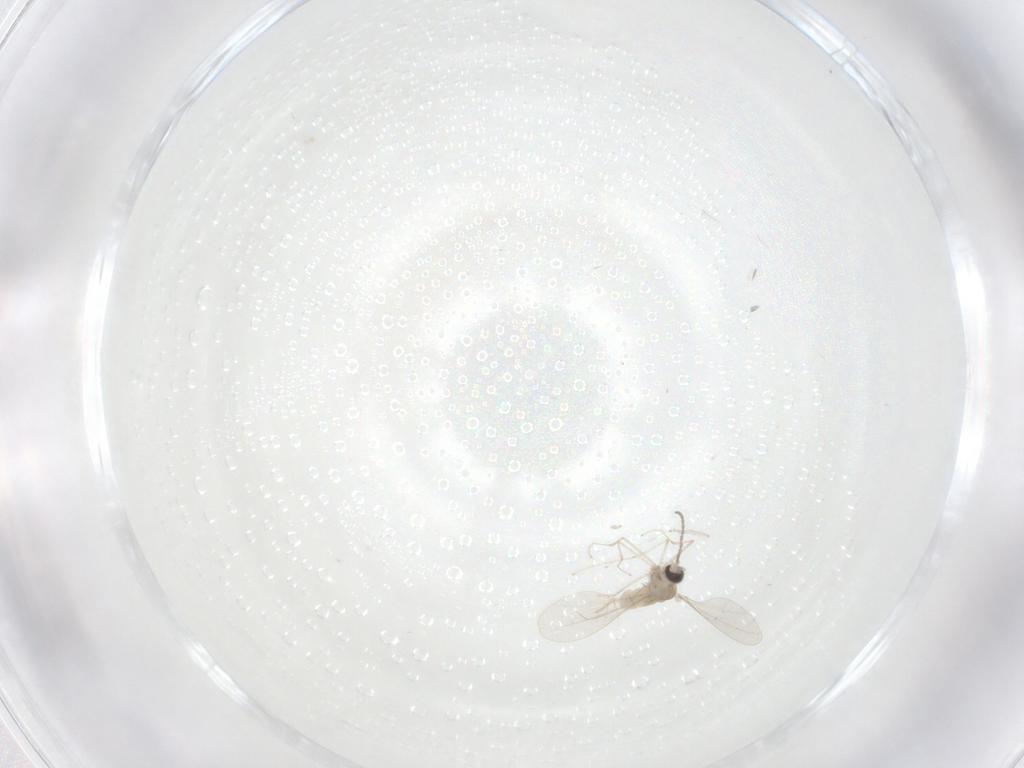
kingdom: Animalia
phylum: Arthropoda
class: Insecta
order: Diptera
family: Cecidomyiidae
